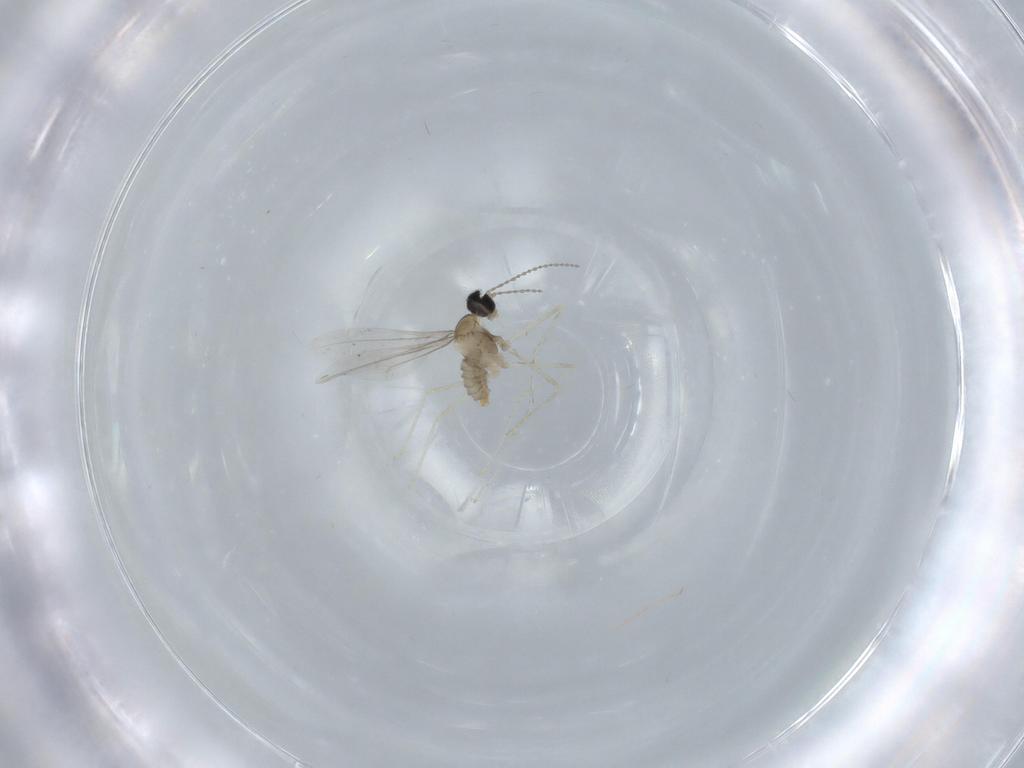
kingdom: Animalia
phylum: Arthropoda
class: Insecta
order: Diptera
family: Cecidomyiidae
